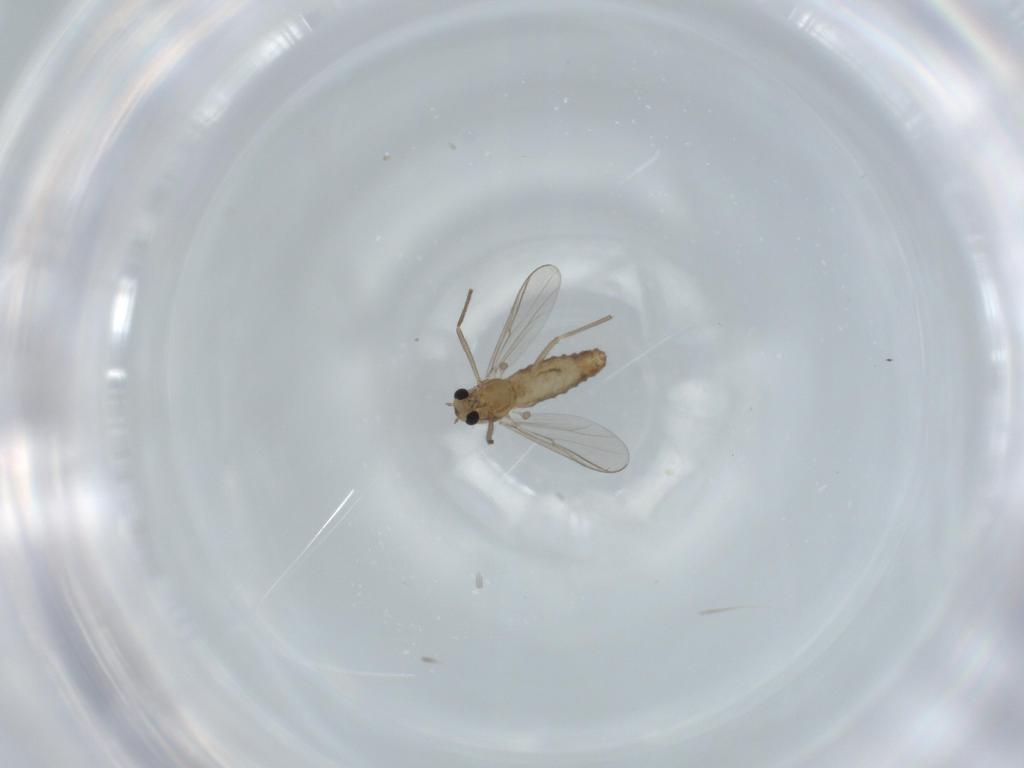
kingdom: Animalia
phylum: Arthropoda
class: Insecta
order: Diptera
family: Chironomidae
